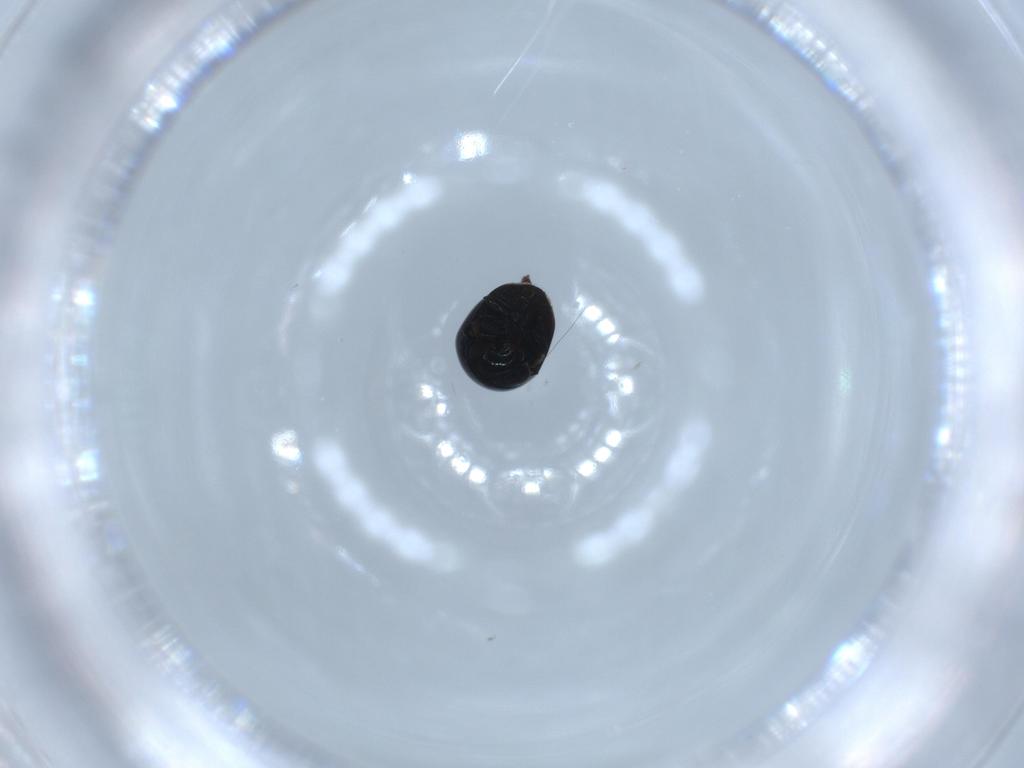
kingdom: Animalia
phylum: Arthropoda
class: Insecta
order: Coleoptera
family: Cybocephalidae
